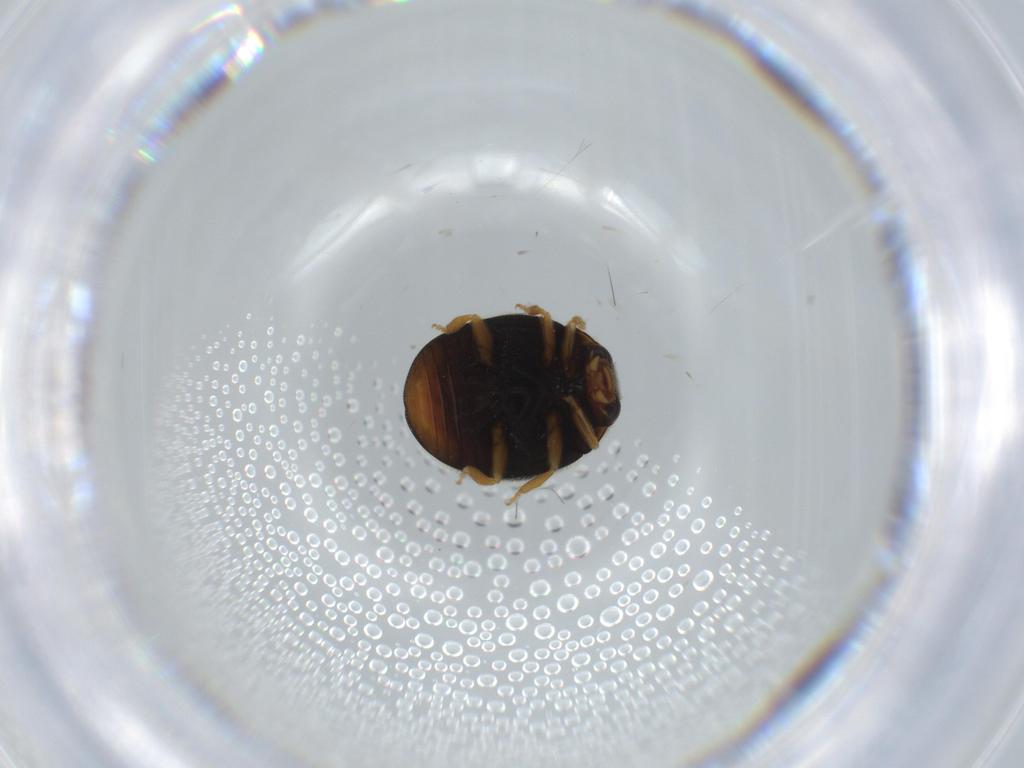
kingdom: Animalia
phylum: Arthropoda
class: Insecta
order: Coleoptera
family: Coccinellidae
